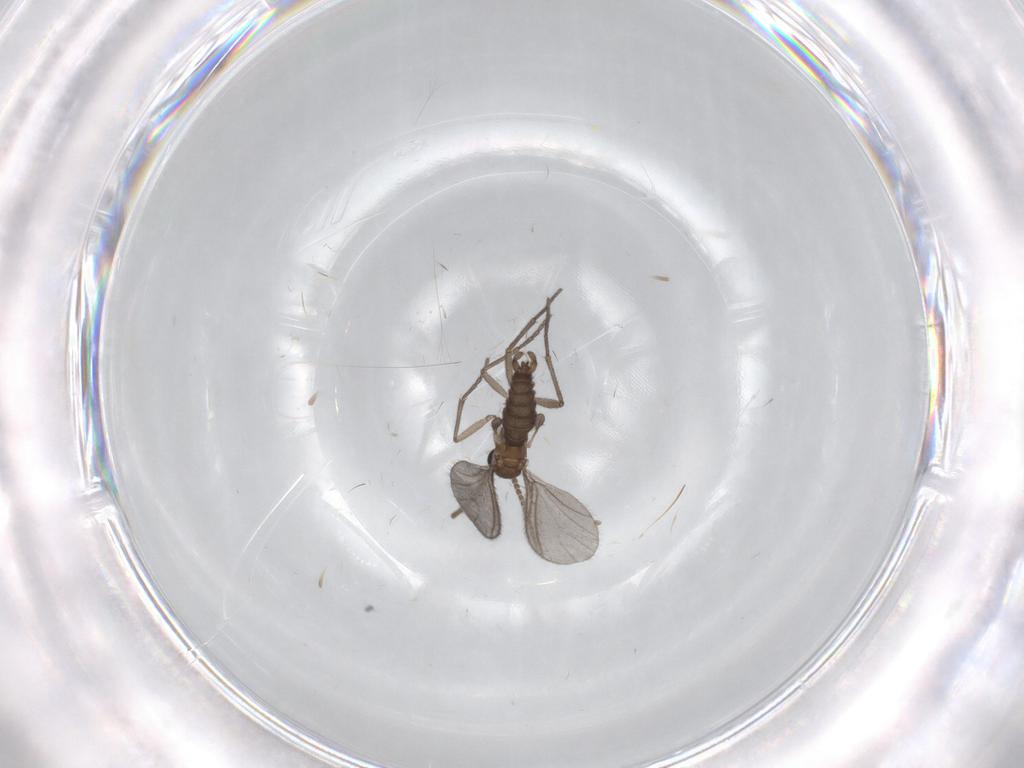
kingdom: Animalia
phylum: Arthropoda
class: Insecta
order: Diptera
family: Sciaridae
